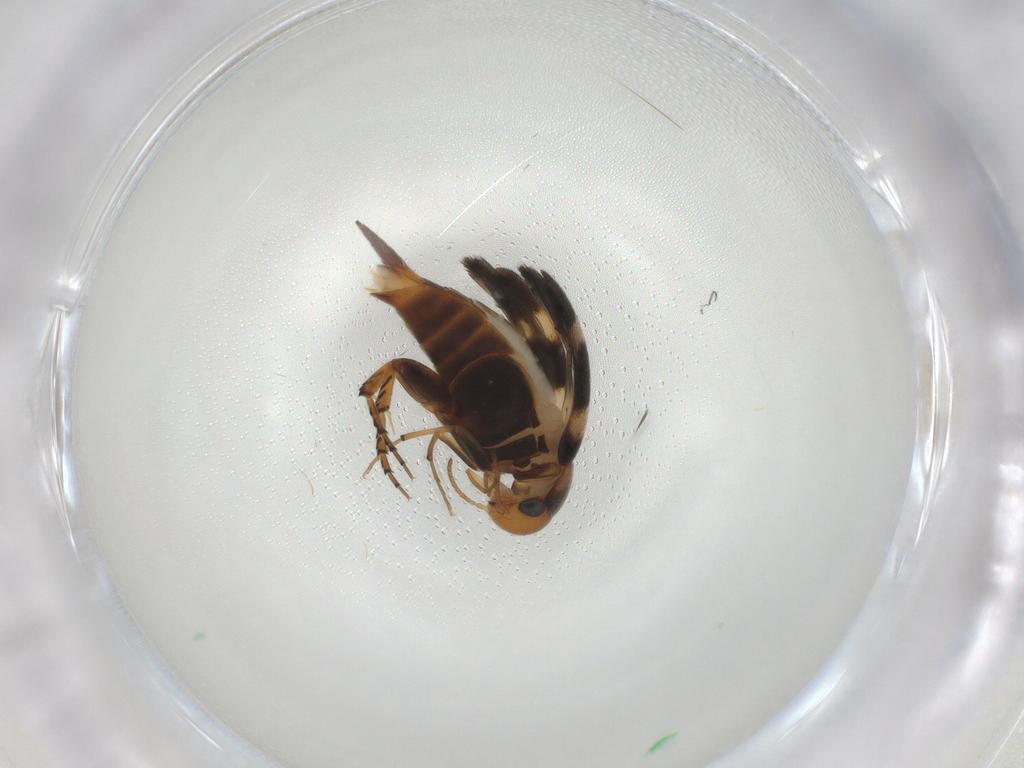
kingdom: Animalia
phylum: Arthropoda
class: Insecta
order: Coleoptera
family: Mordellidae
